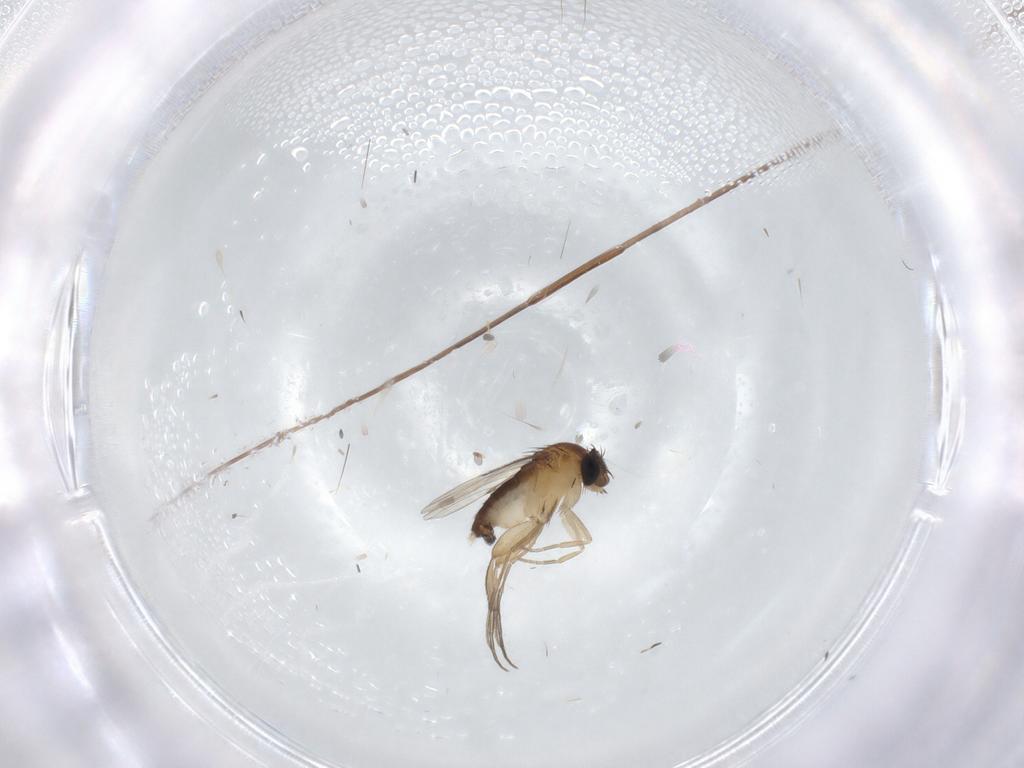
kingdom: Animalia
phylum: Arthropoda
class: Insecta
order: Diptera
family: Phoridae
